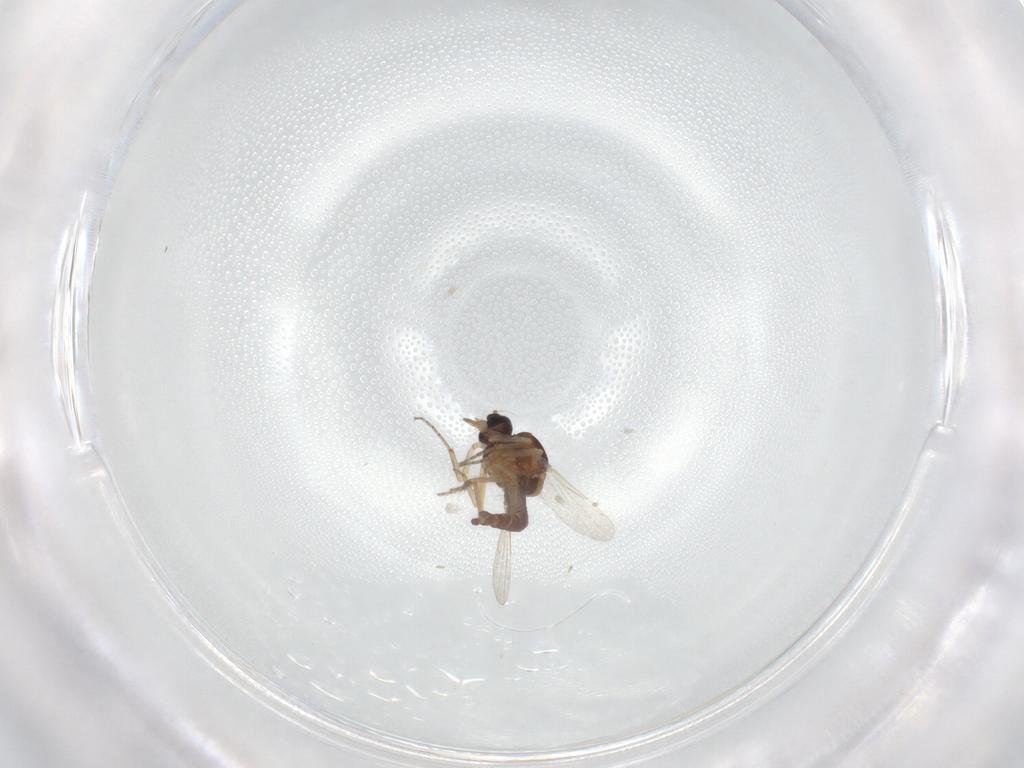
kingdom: Animalia
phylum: Arthropoda
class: Insecta
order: Diptera
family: Ceratopogonidae
